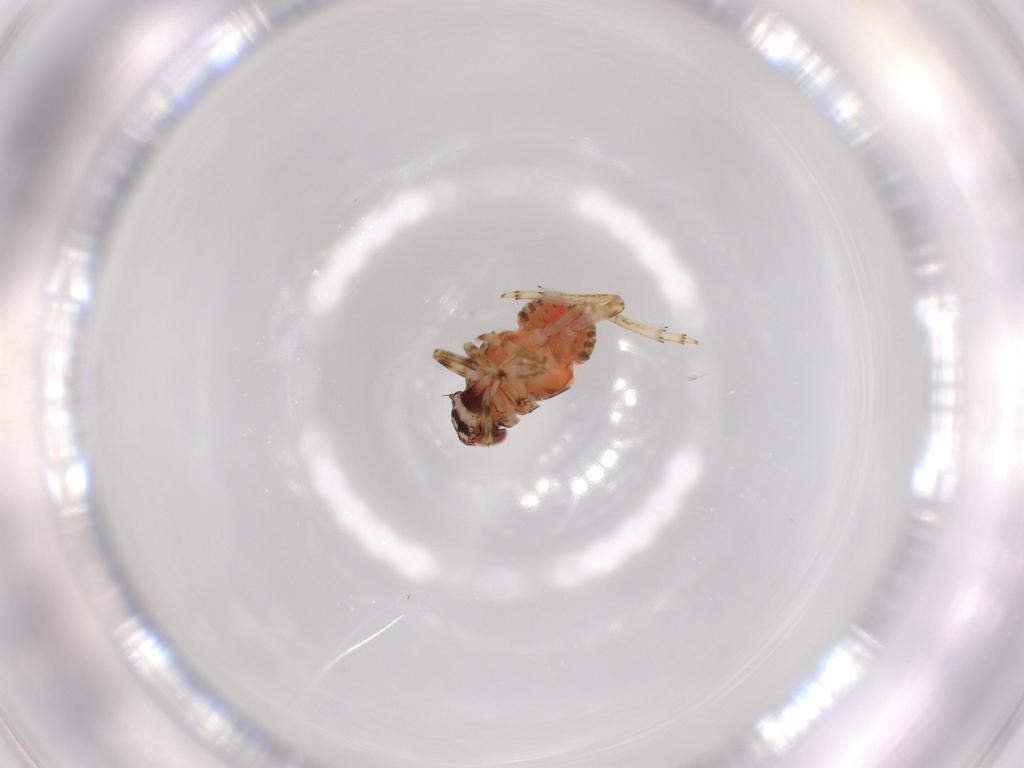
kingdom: Animalia
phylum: Arthropoda
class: Insecta
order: Hemiptera
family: Issidae
